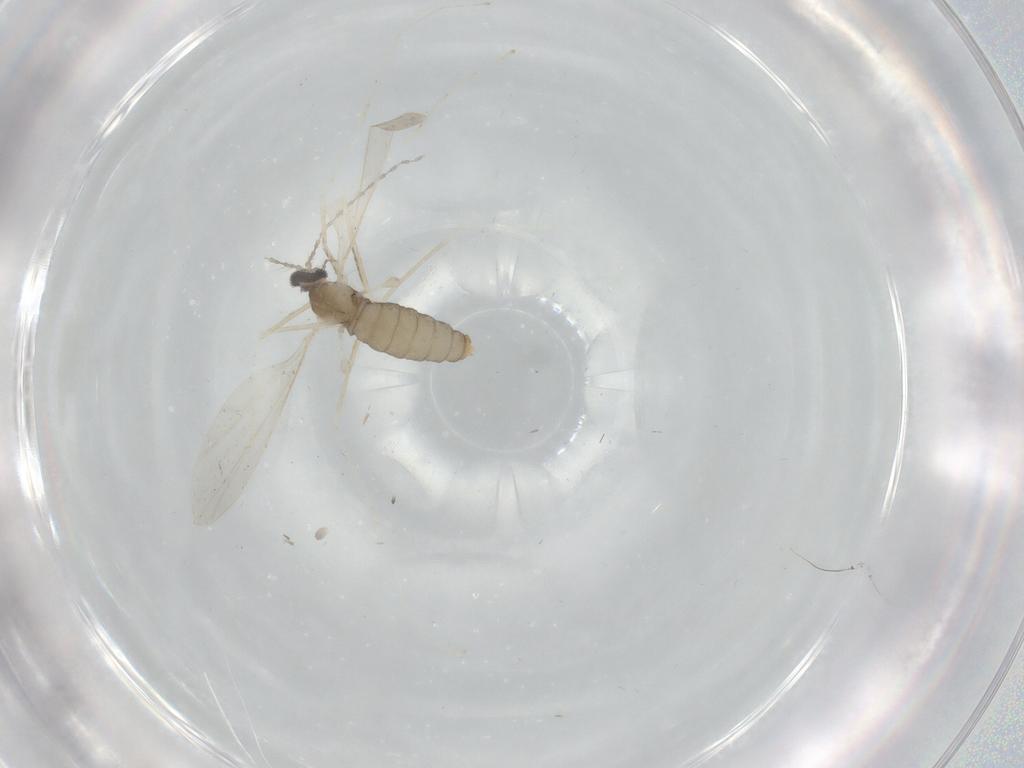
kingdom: Animalia
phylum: Arthropoda
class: Insecta
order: Diptera
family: Cecidomyiidae
